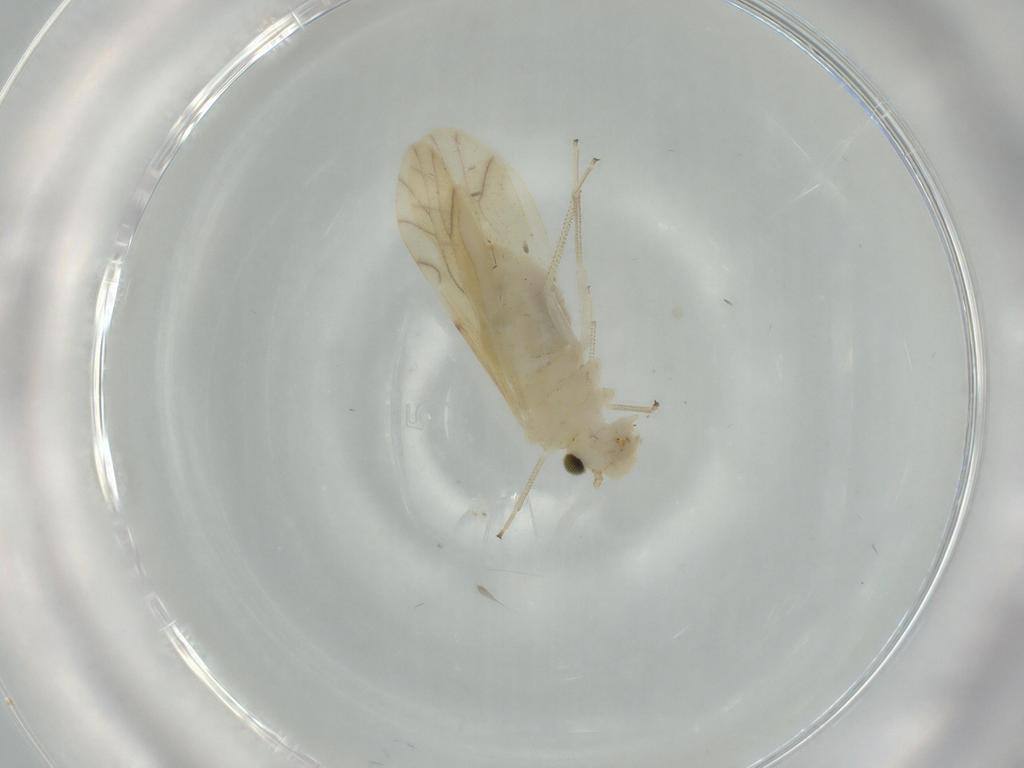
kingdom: Animalia
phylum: Arthropoda
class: Insecta
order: Psocodea
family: Caeciliusidae
